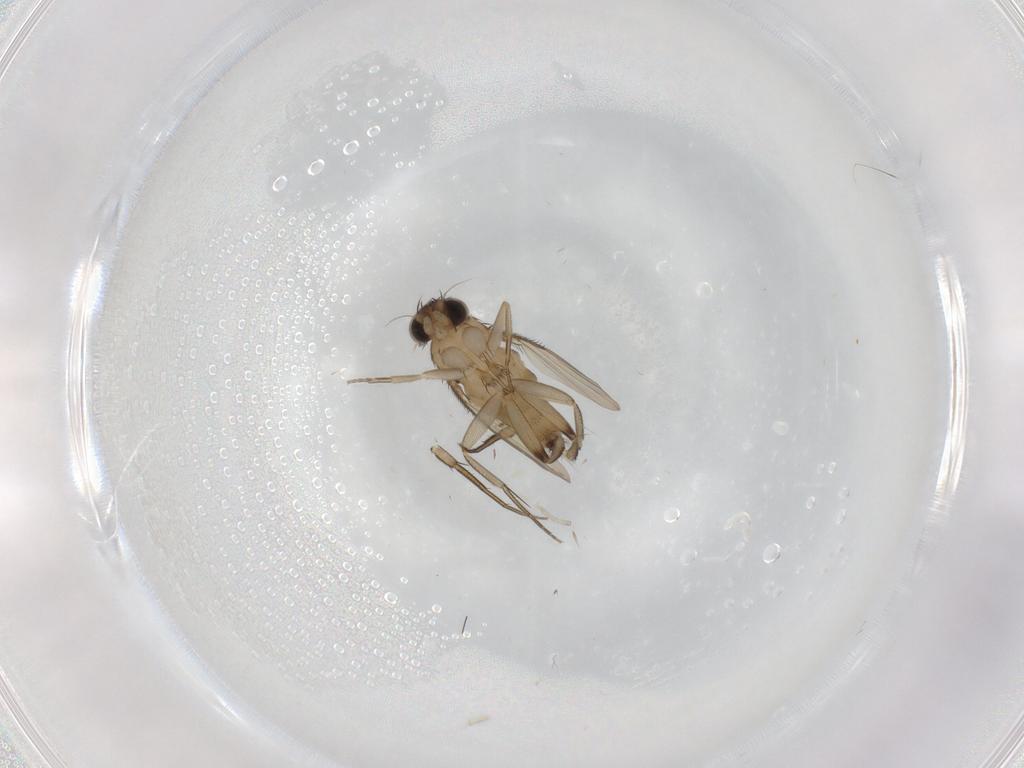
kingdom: Animalia
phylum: Arthropoda
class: Insecta
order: Diptera
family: Phoridae
